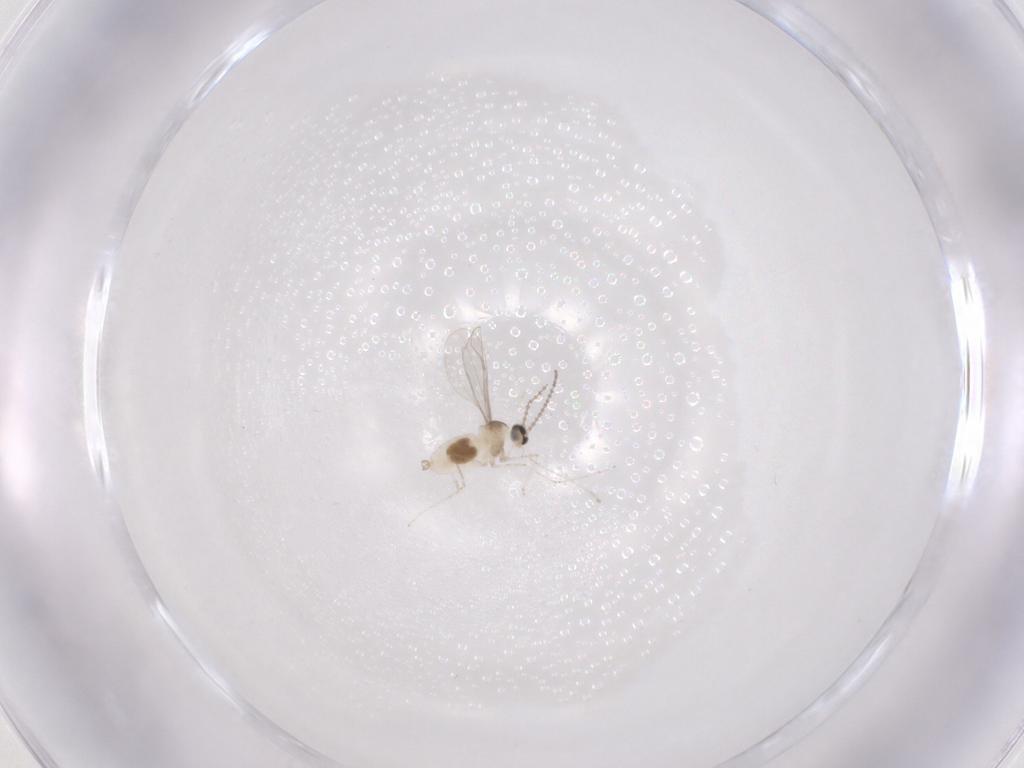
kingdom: Animalia
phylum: Arthropoda
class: Insecta
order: Diptera
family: Cecidomyiidae
